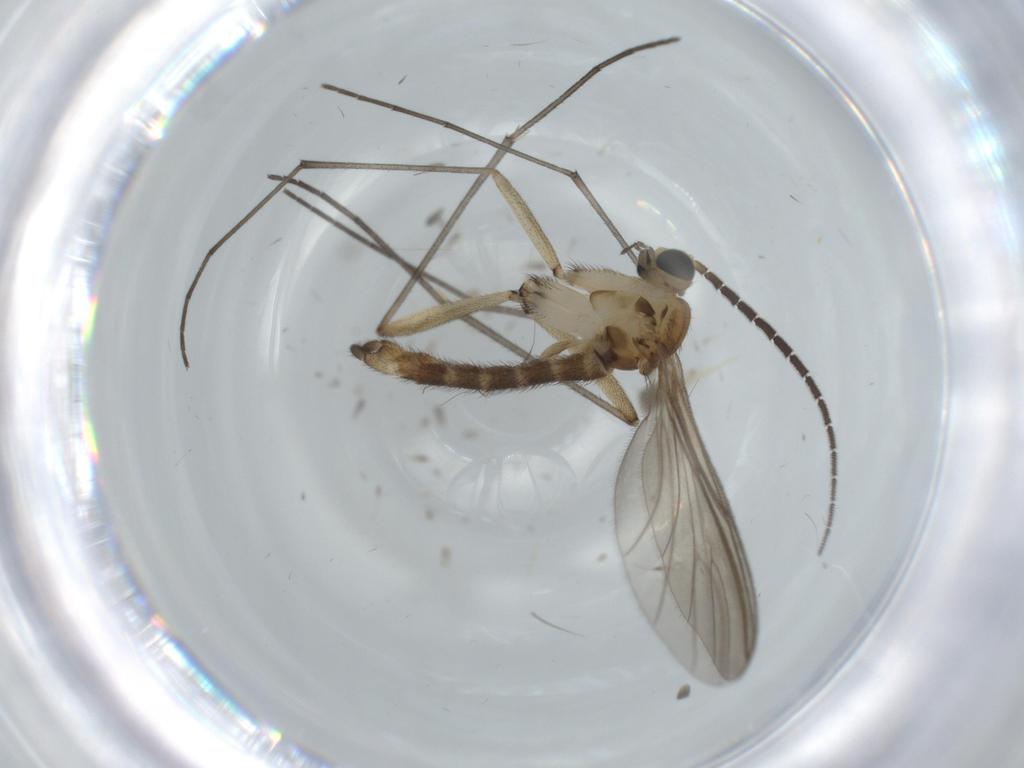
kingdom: Animalia
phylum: Arthropoda
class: Insecta
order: Diptera
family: Sciaridae
